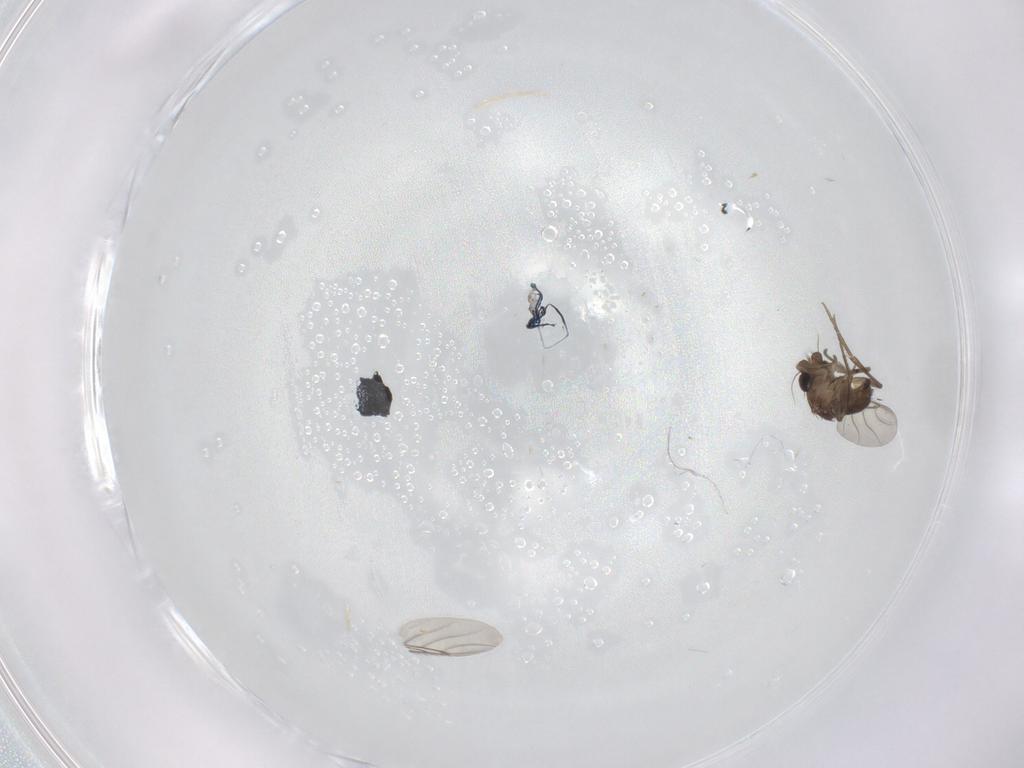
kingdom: Animalia
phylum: Arthropoda
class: Insecta
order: Diptera
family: Phoridae
